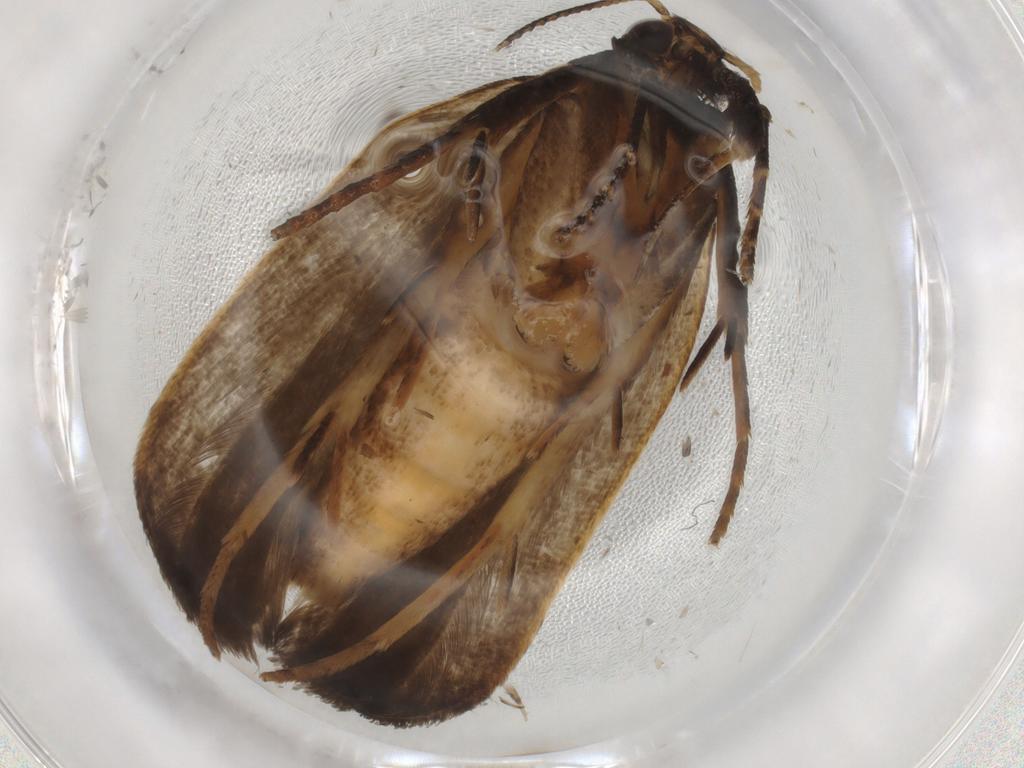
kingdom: Animalia
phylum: Arthropoda
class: Insecta
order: Lepidoptera
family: Gelechiidae
